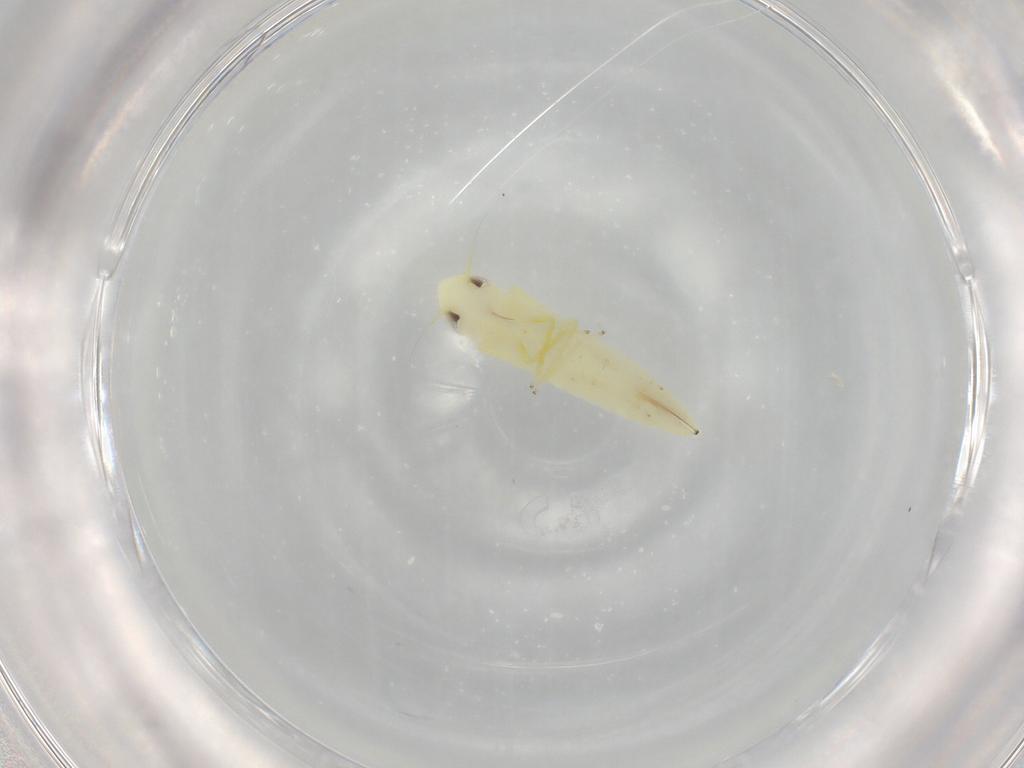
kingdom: Animalia
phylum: Arthropoda
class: Insecta
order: Hemiptera
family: Cicadellidae
